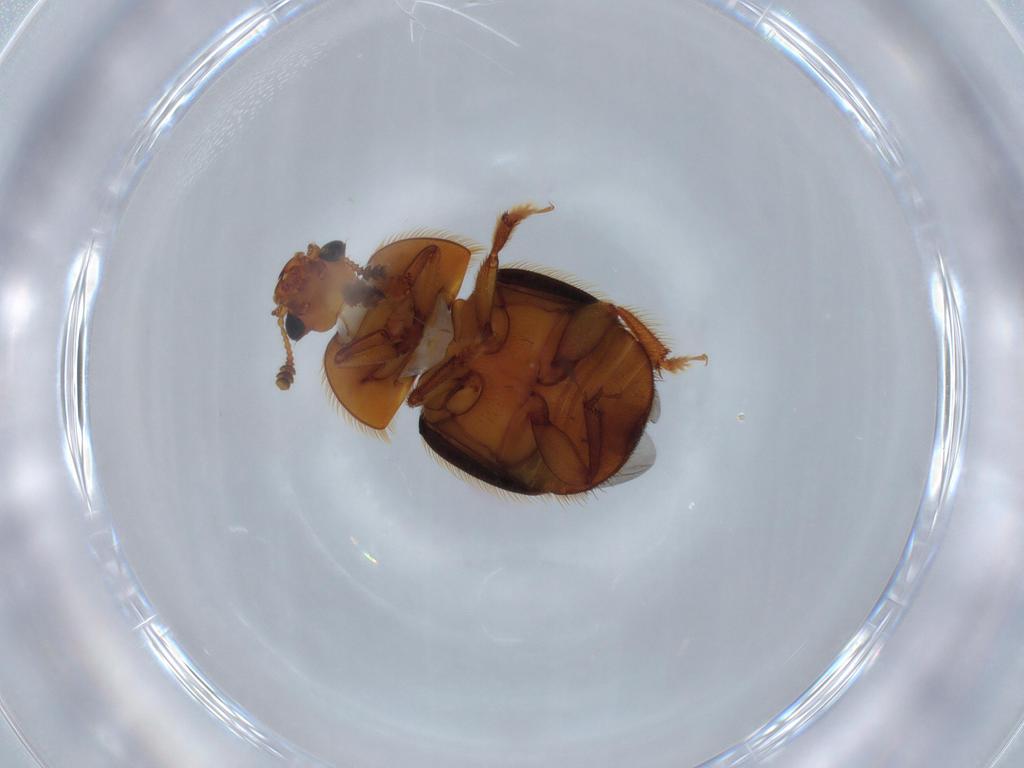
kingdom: Animalia
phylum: Arthropoda
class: Insecta
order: Coleoptera
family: Nitidulidae
